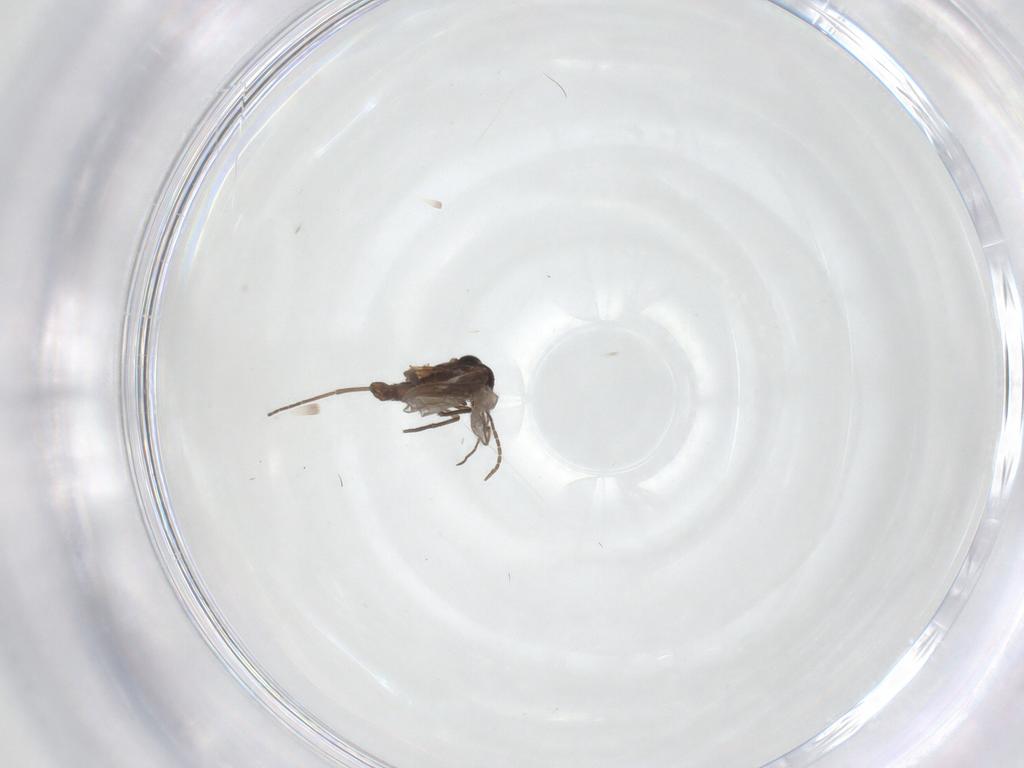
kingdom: Animalia
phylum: Arthropoda
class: Insecta
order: Diptera
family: Sciaridae
